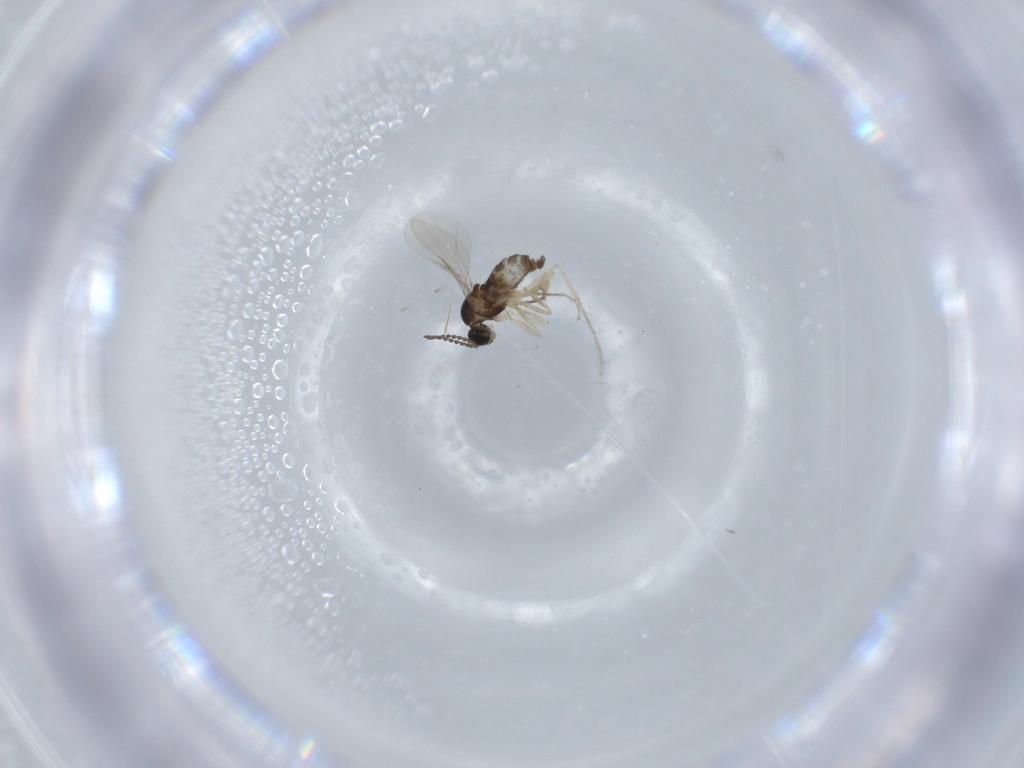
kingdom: Animalia
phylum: Arthropoda
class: Insecta
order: Diptera
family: Cecidomyiidae
